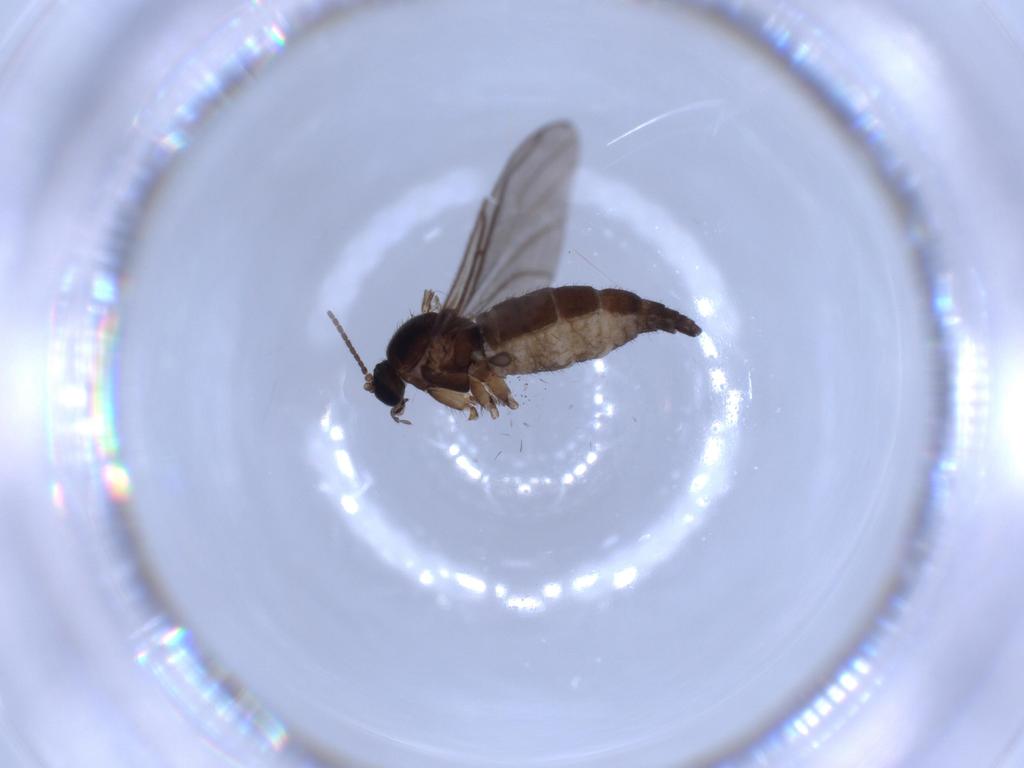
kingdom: Animalia
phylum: Arthropoda
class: Insecta
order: Diptera
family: Sciaridae
